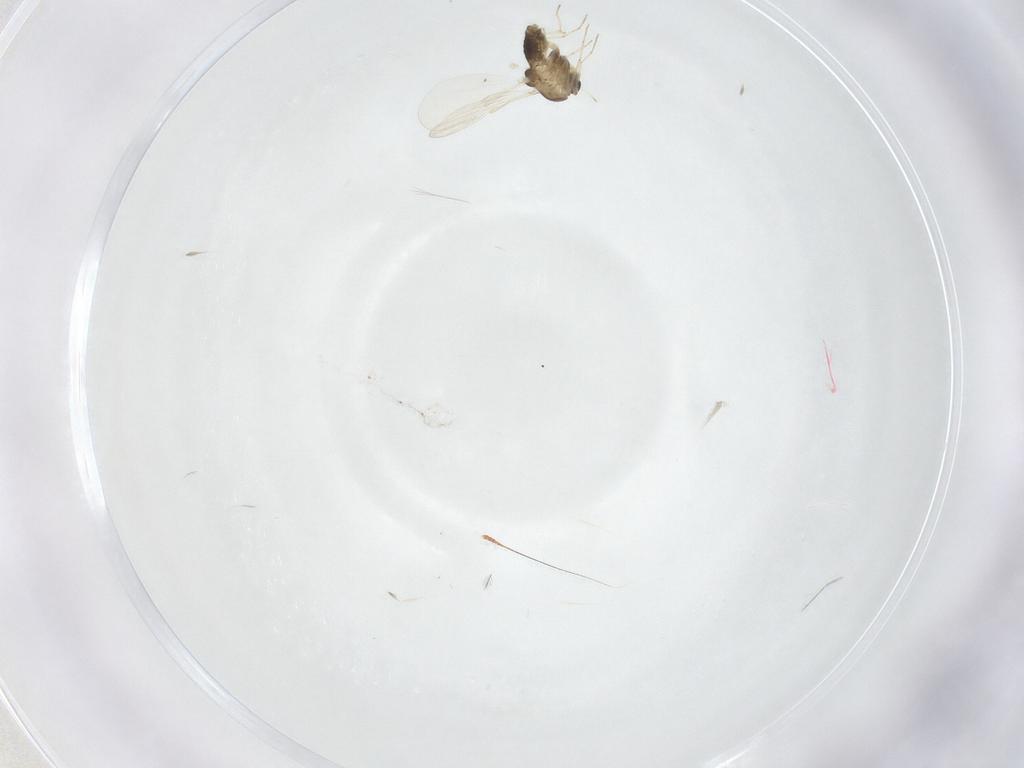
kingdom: Animalia
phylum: Arthropoda
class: Insecta
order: Diptera
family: Chironomidae
